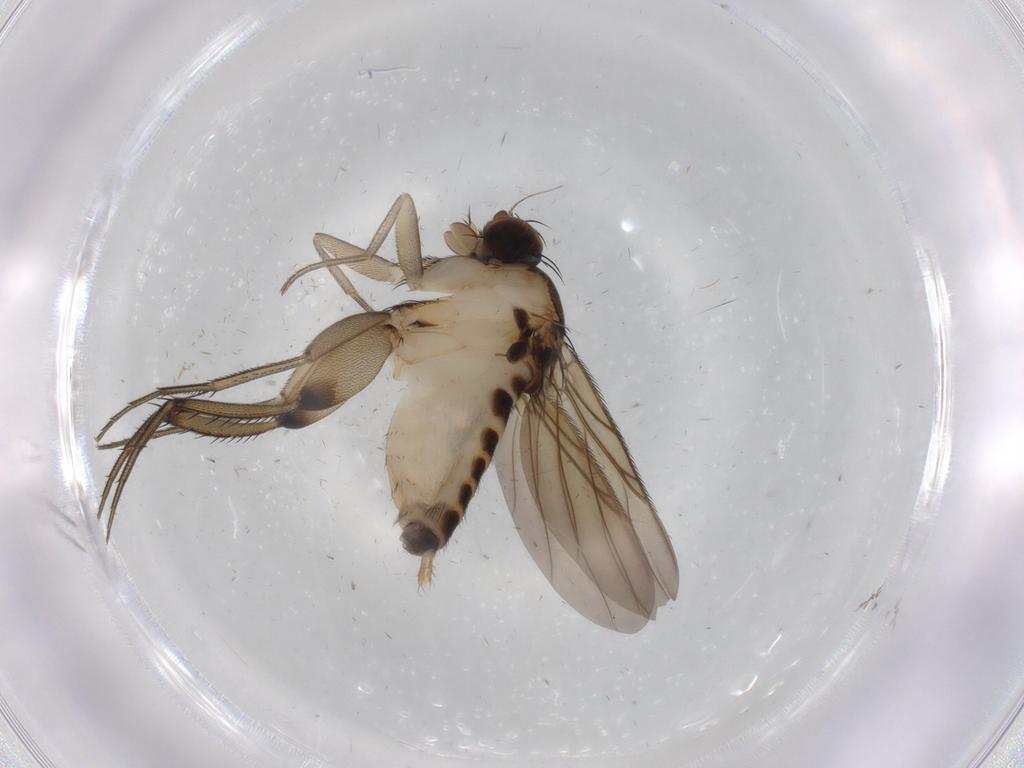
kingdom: Animalia
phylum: Arthropoda
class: Insecta
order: Diptera
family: Phoridae
